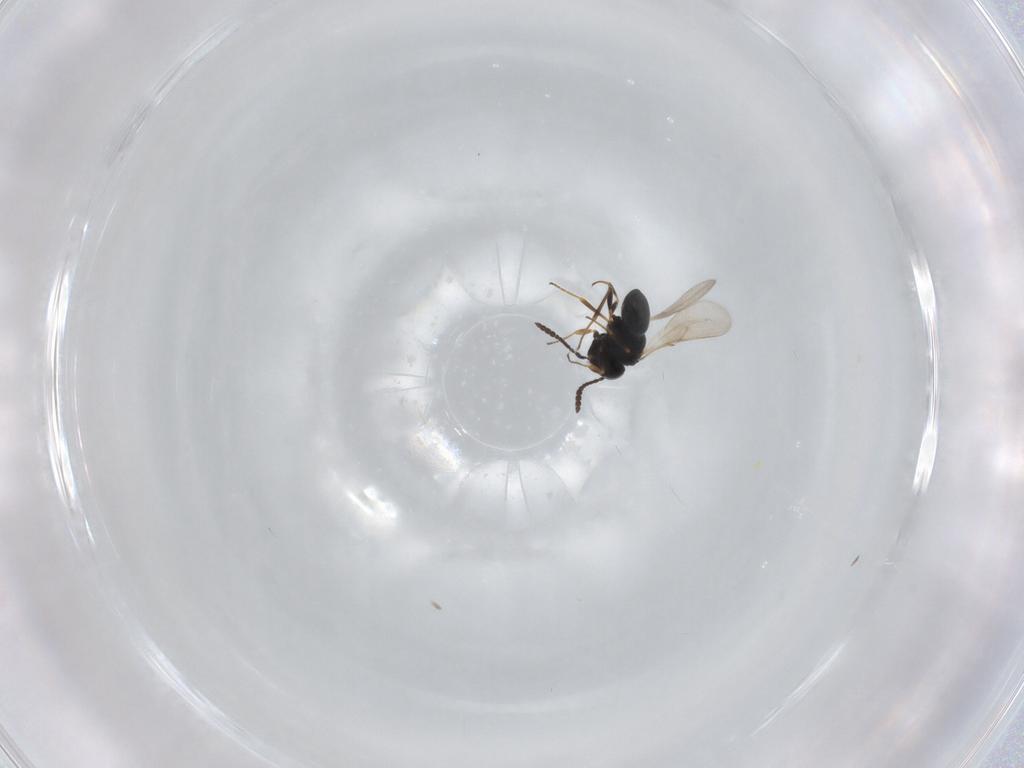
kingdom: Animalia
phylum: Arthropoda
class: Insecta
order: Hymenoptera
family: Scelionidae
